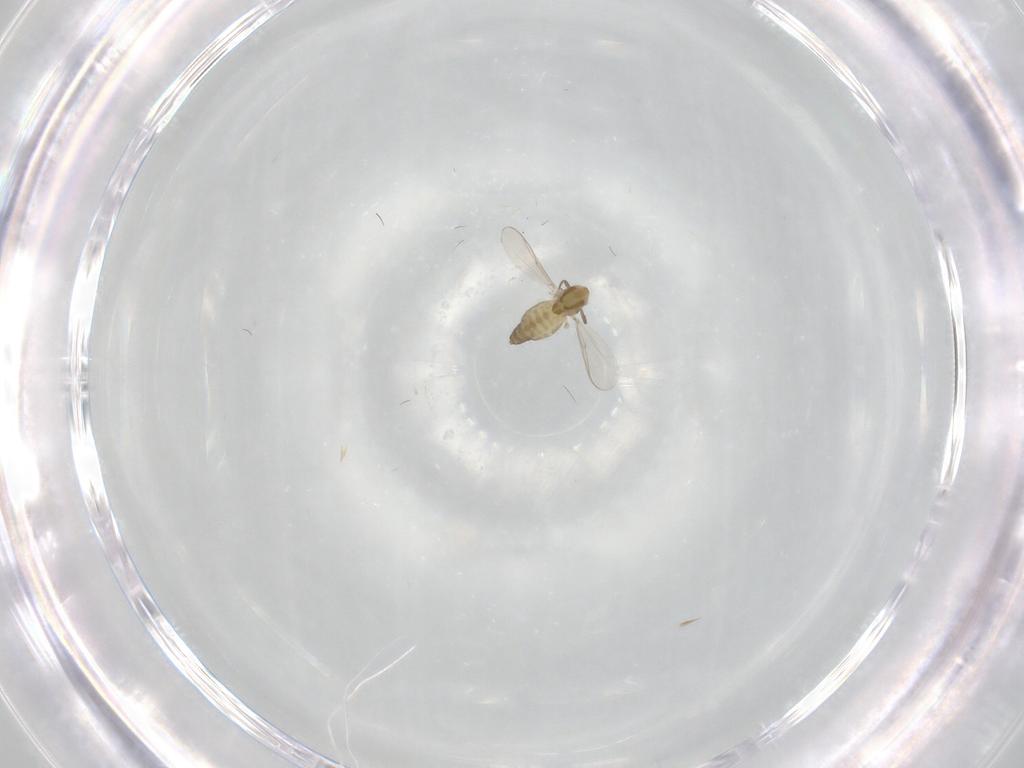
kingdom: Animalia
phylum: Arthropoda
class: Insecta
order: Diptera
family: Chironomidae
